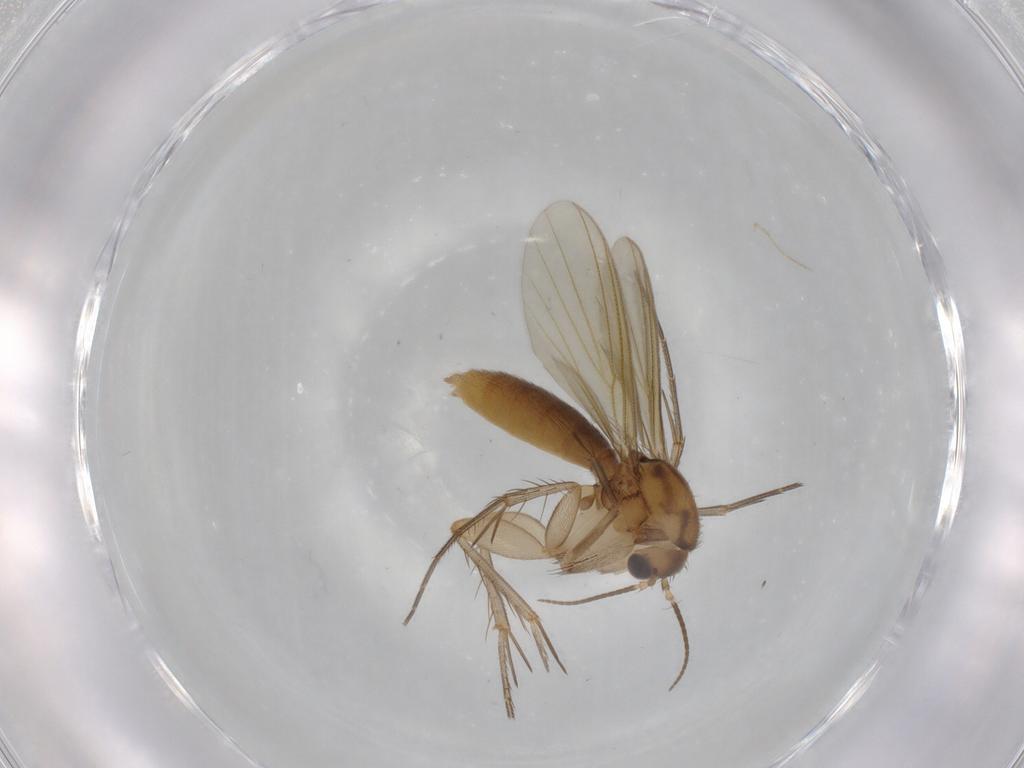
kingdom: Animalia
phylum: Arthropoda
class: Insecta
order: Diptera
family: Mycetophilidae
